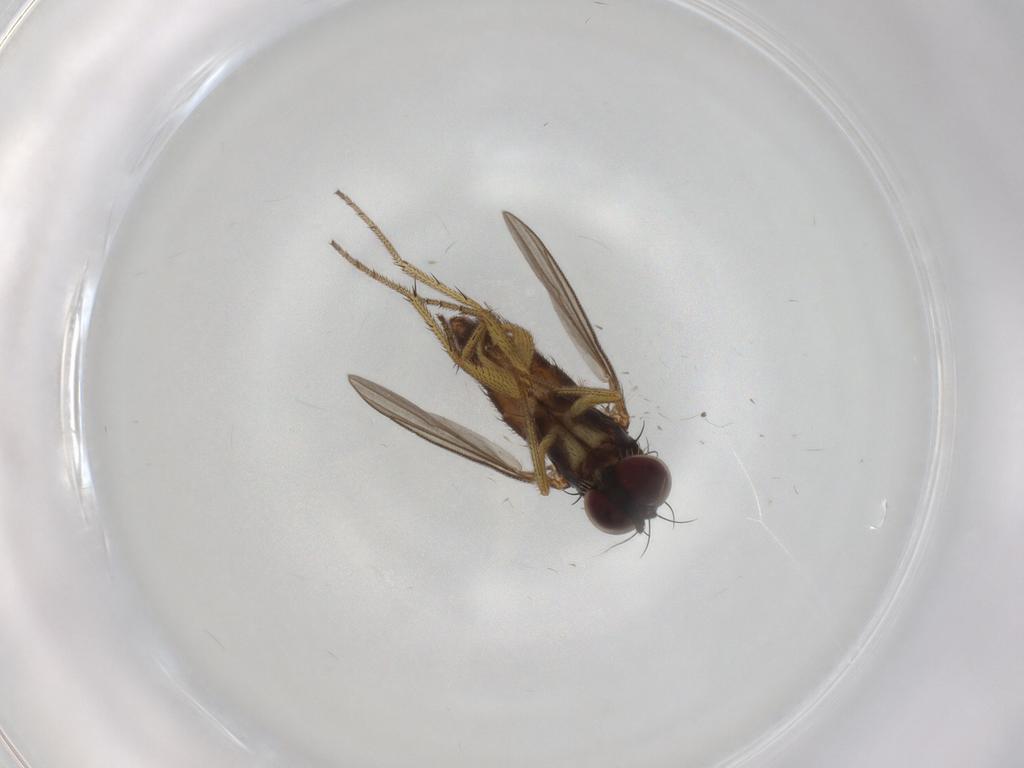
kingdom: Animalia
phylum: Arthropoda
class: Insecta
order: Diptera
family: Dolichopodidae
